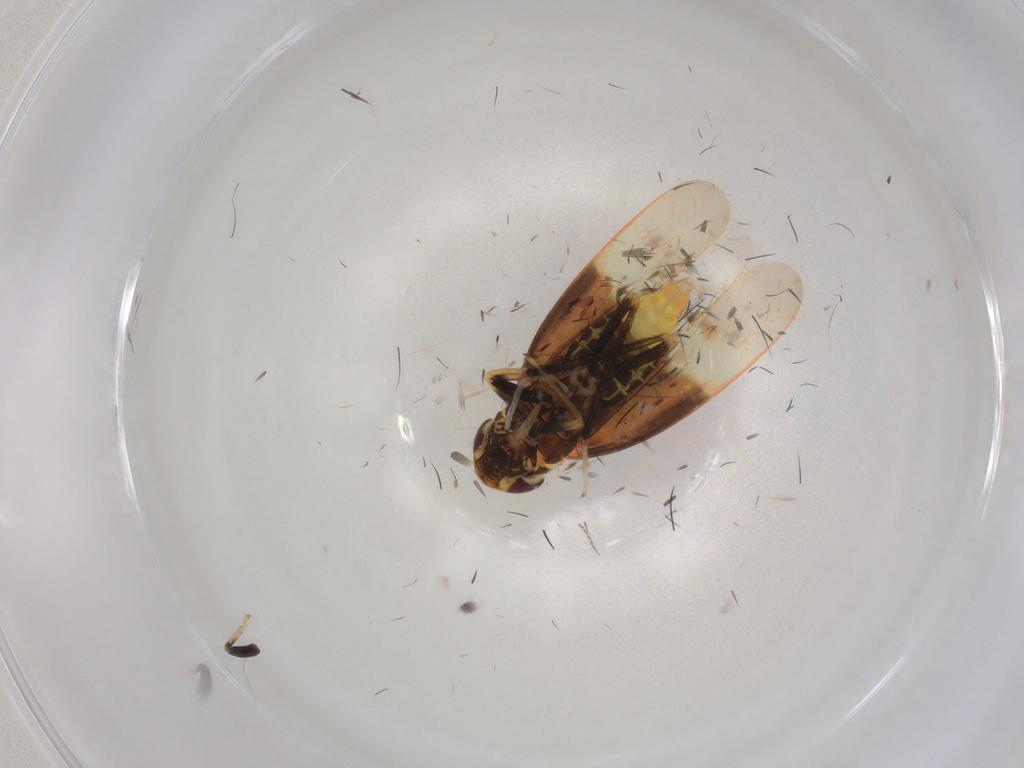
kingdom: Animalia
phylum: Arthropoda
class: Insecta
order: Hemiptera
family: Cicadellidae
